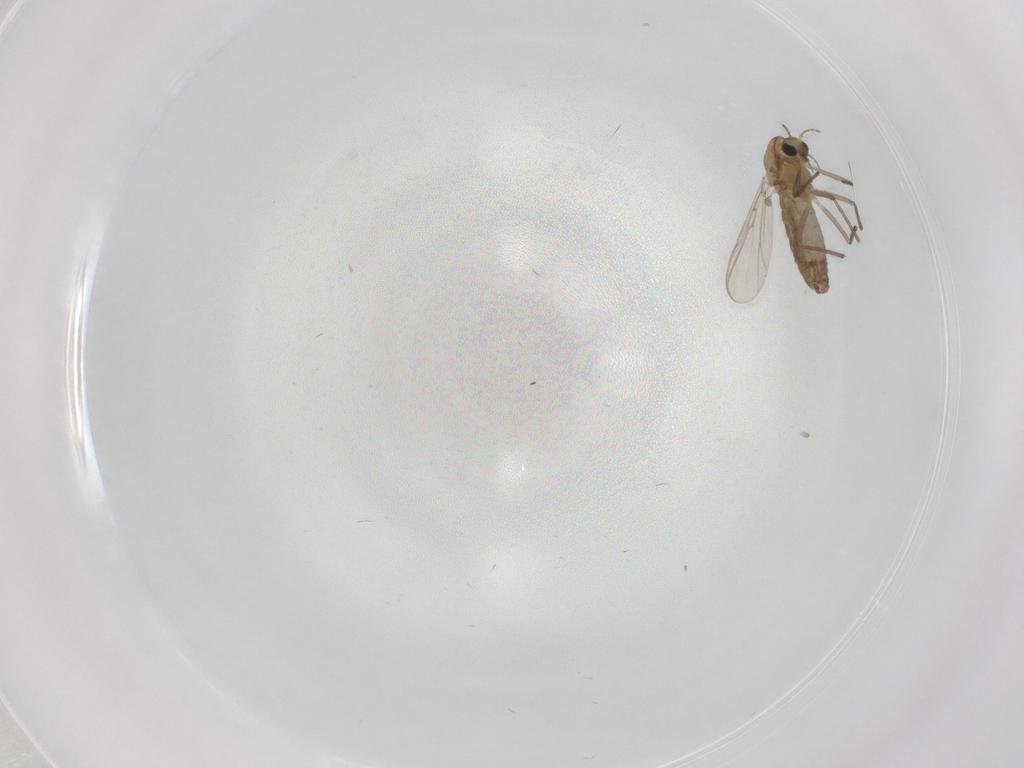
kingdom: Animalia
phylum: Arthropoda
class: Insecta
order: Diptera
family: Chironomidae
